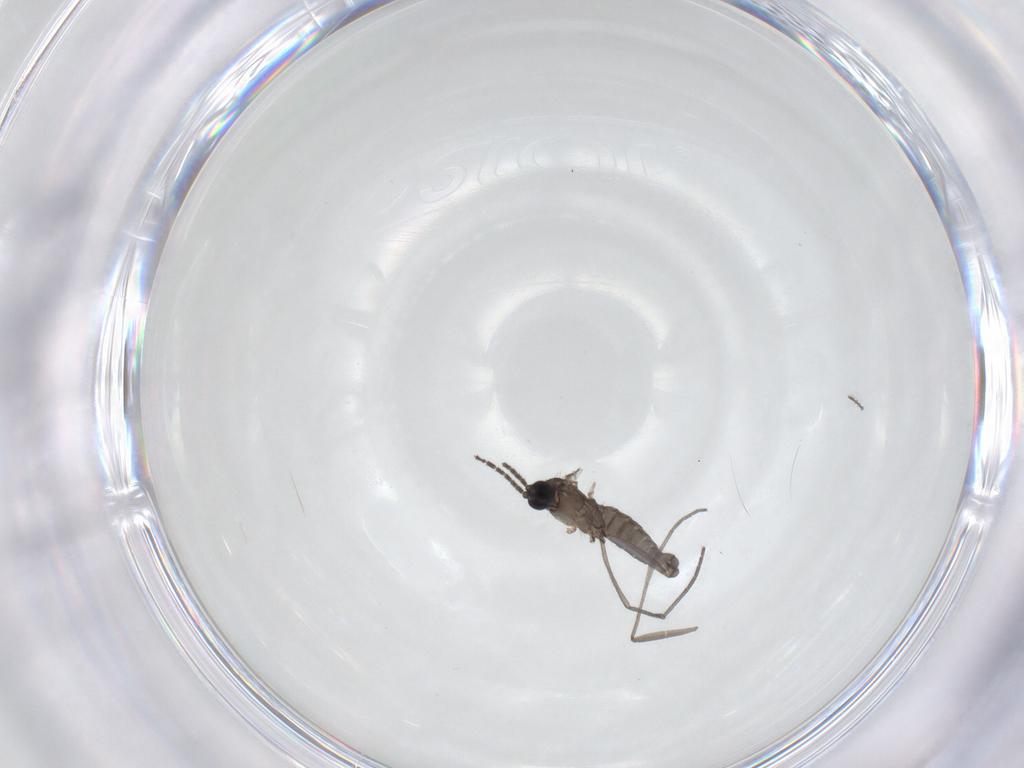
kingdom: Animalia
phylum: Arthropoda
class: Insecta
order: Diptera
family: Sciaridae
